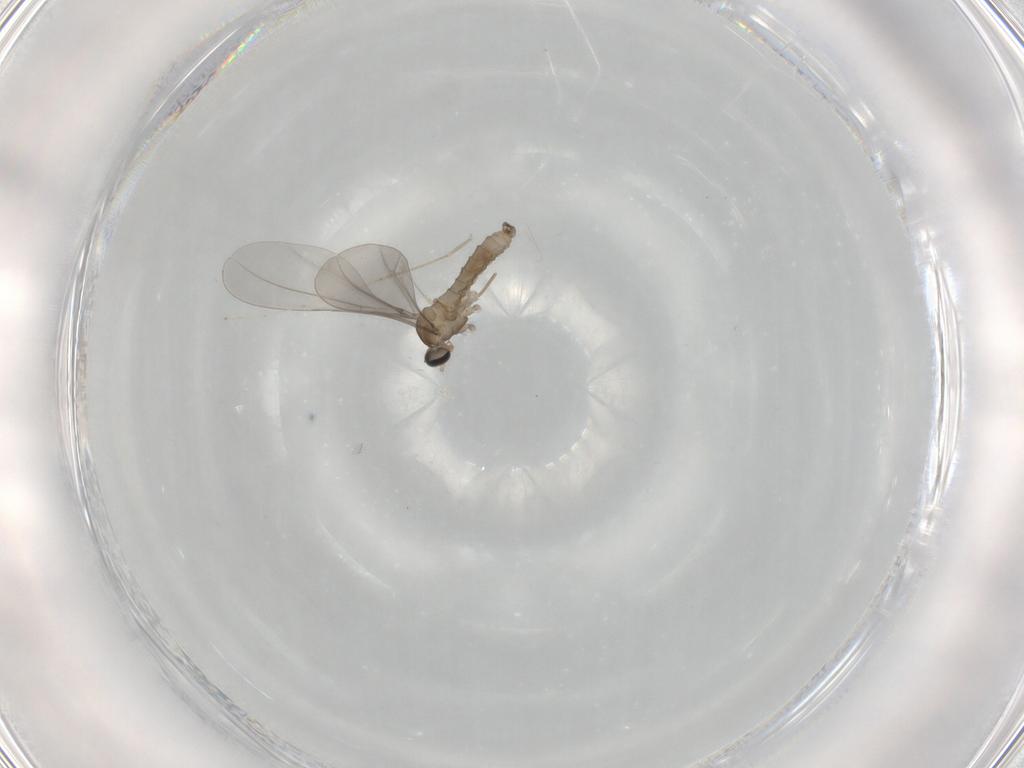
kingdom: Animalia
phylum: Arthropoda
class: Insecta
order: Diptera
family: Cecidomyiidae
